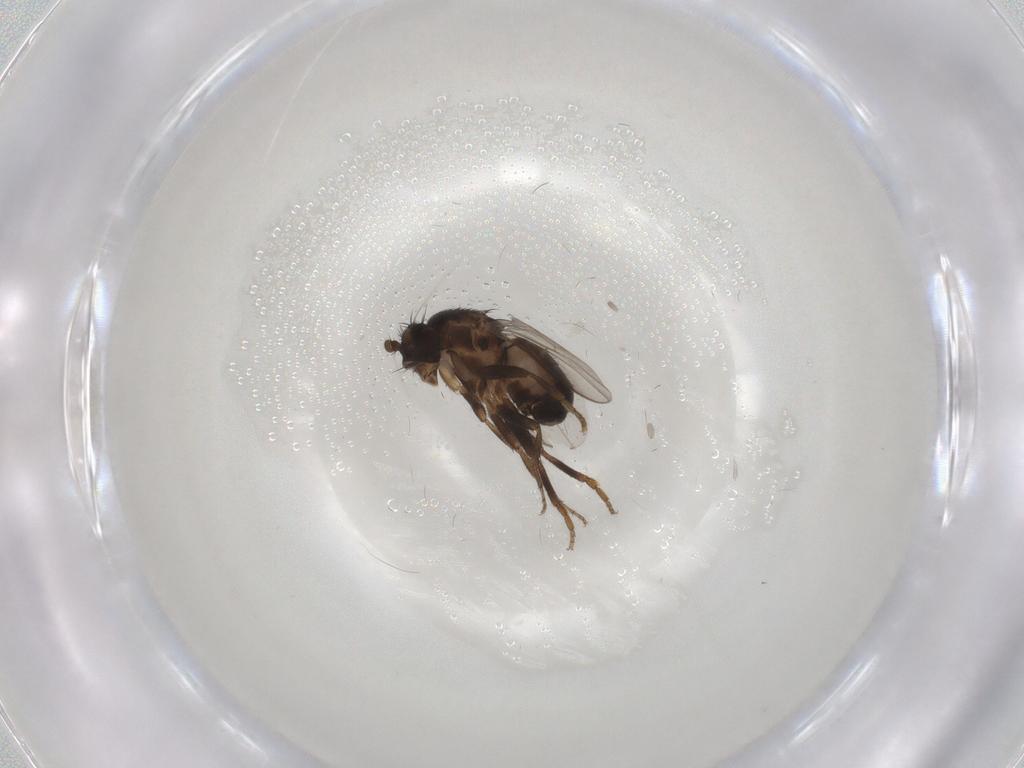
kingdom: Animalia
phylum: Arthropoda
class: Insecta
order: Diptera
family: Sphaeroceridae
